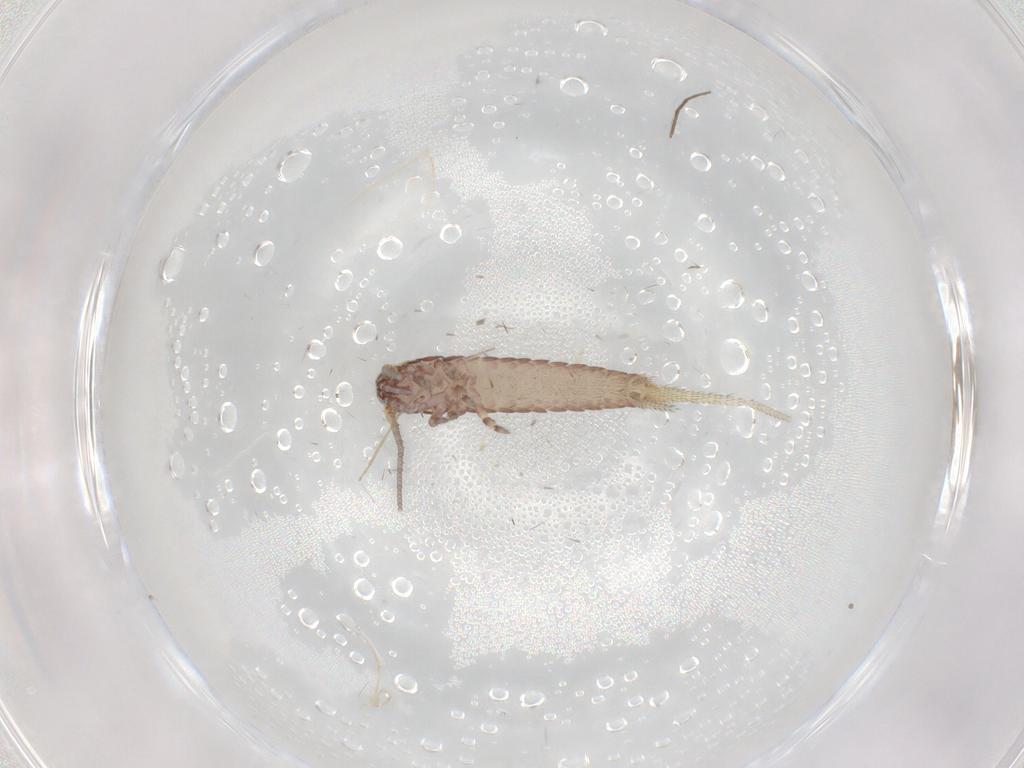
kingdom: Animalia
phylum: Arthropoda
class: Insecta
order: Archaeognatha
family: Machilidae
